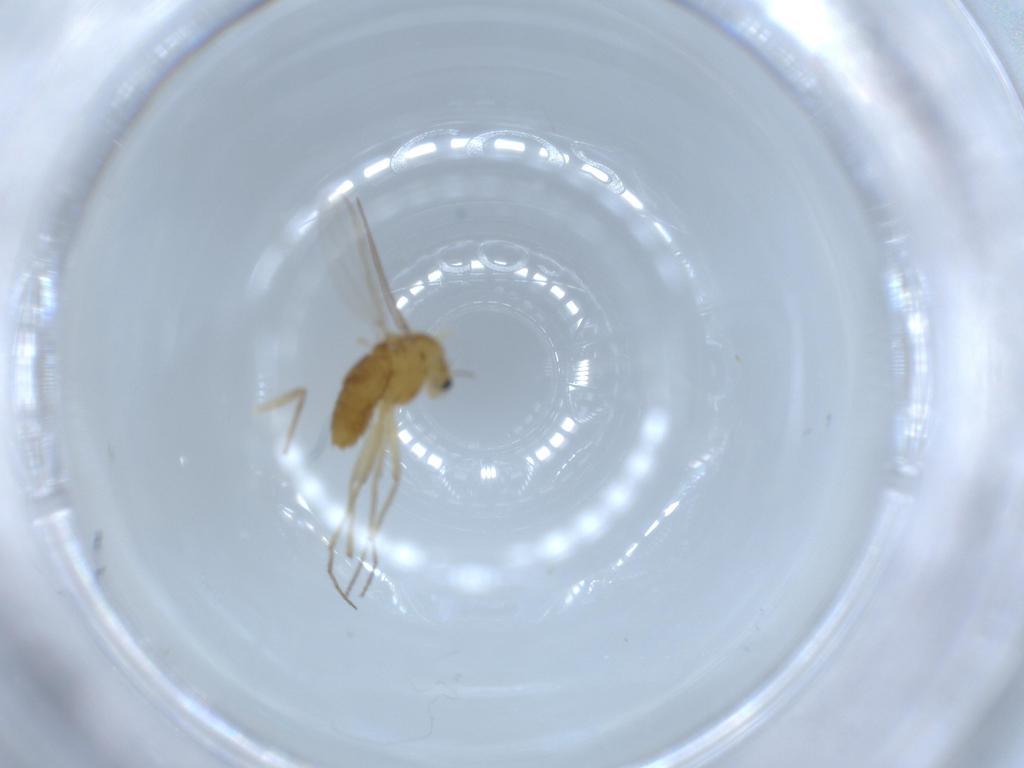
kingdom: Animalia
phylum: Arthropoda
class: Insecta
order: Diptera
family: Chironomidae
